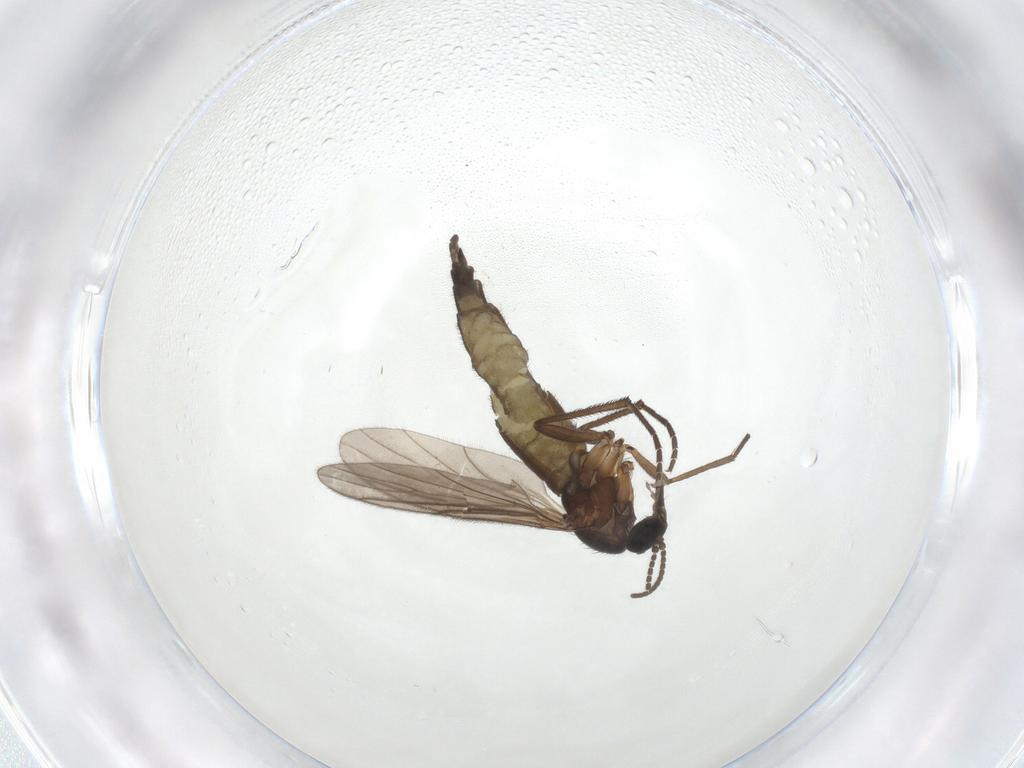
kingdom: Animalia
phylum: Arthropoda
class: Insecta
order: Diptera
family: Sciaridae
